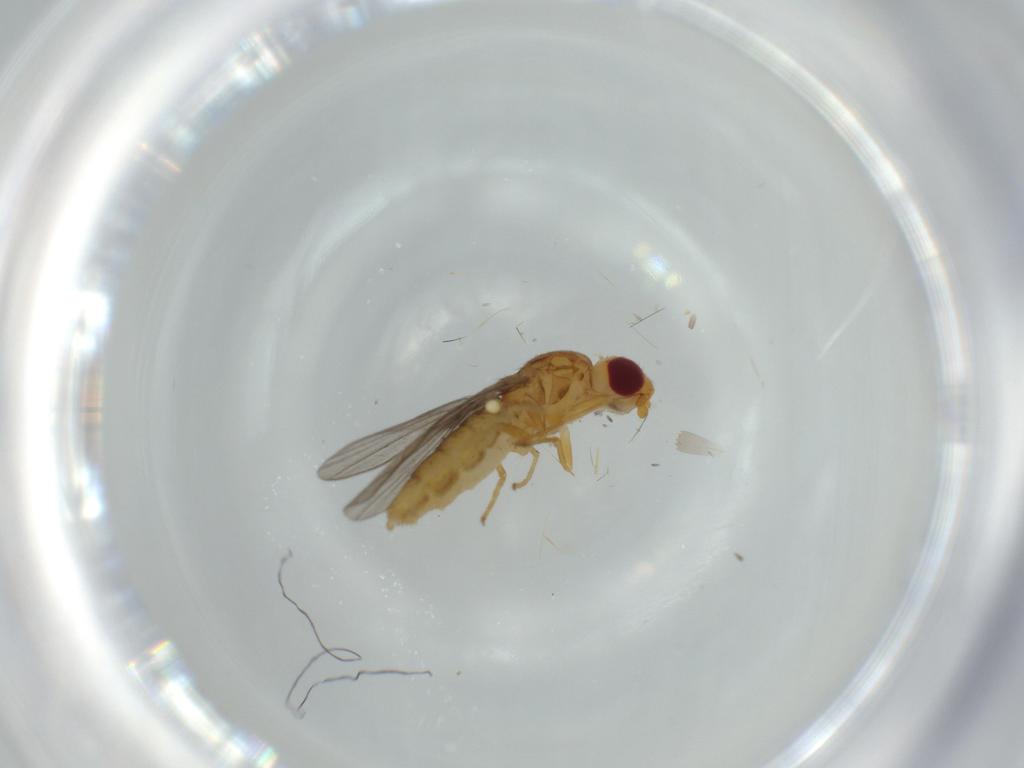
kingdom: Animalia
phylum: Arthropoda
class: Insecta
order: Diptera
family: Chloropidae
